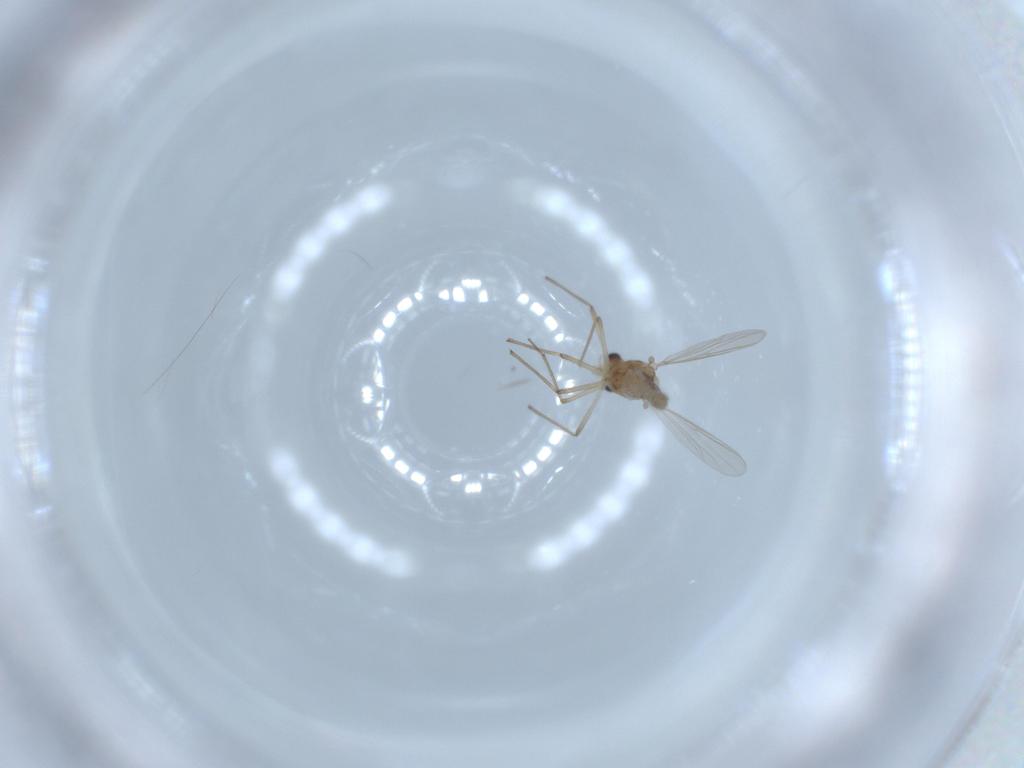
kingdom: Animalia
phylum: Arthropoda
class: Insecta
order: Diptera
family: Chironomidae
